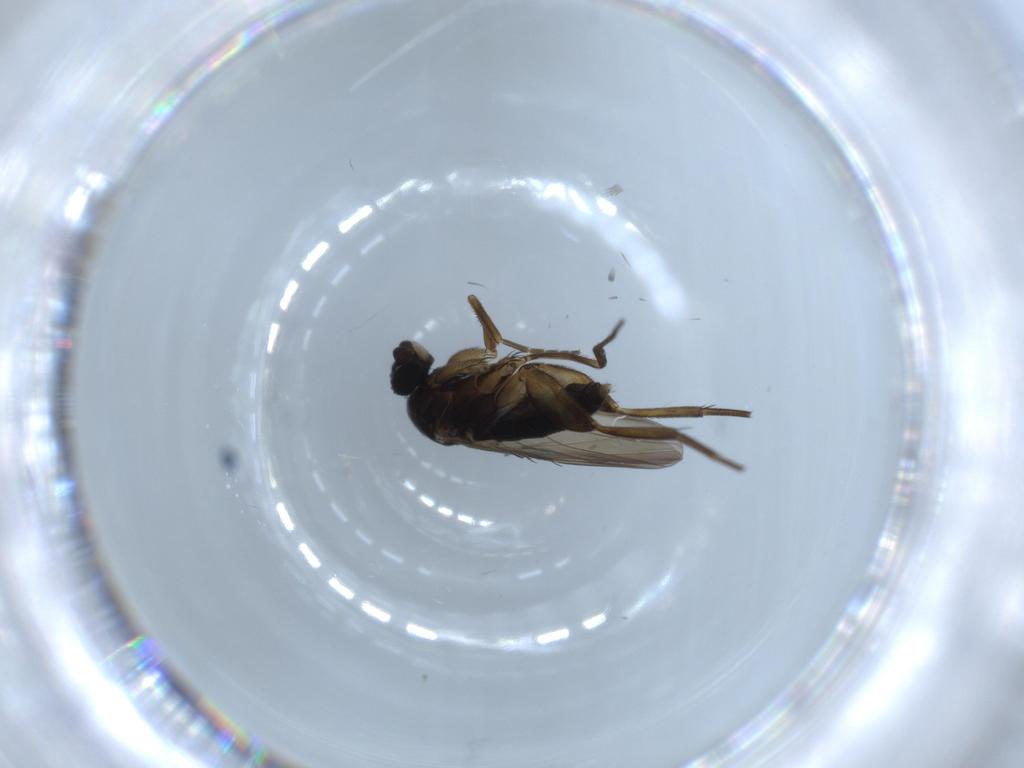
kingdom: Animalia
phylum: Arthropoda
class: Insecta
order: Diptera
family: Phoridae
